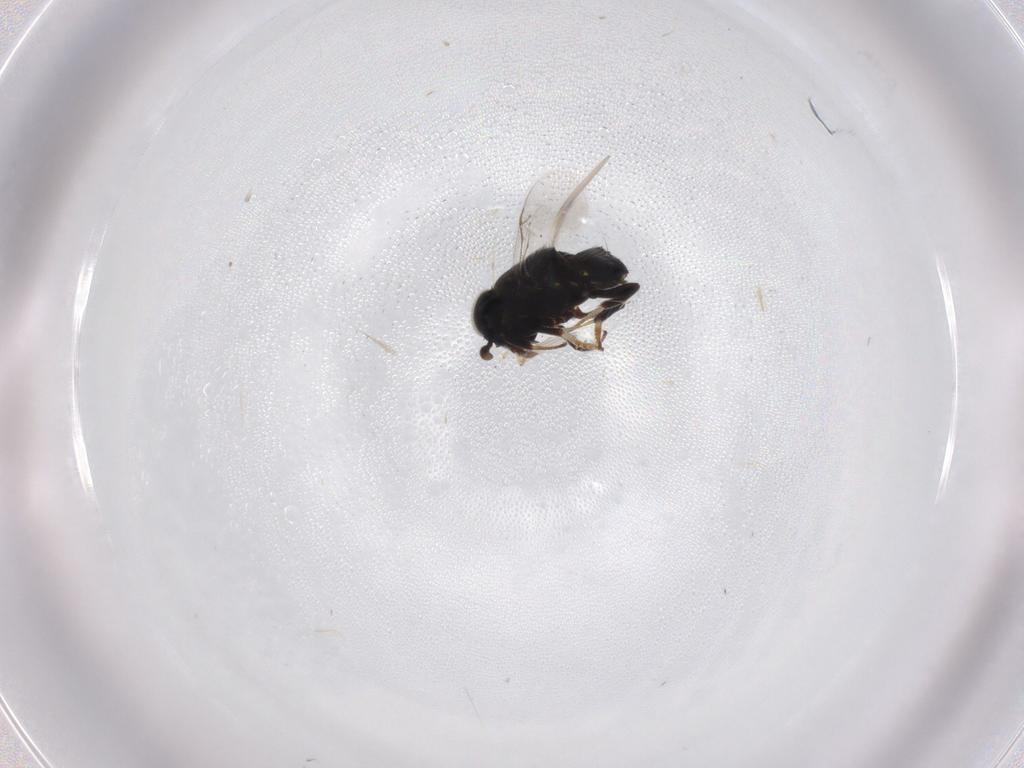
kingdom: Animalia
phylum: Arthropoda
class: Insecta
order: Hymenoptera
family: Encyrtidae
